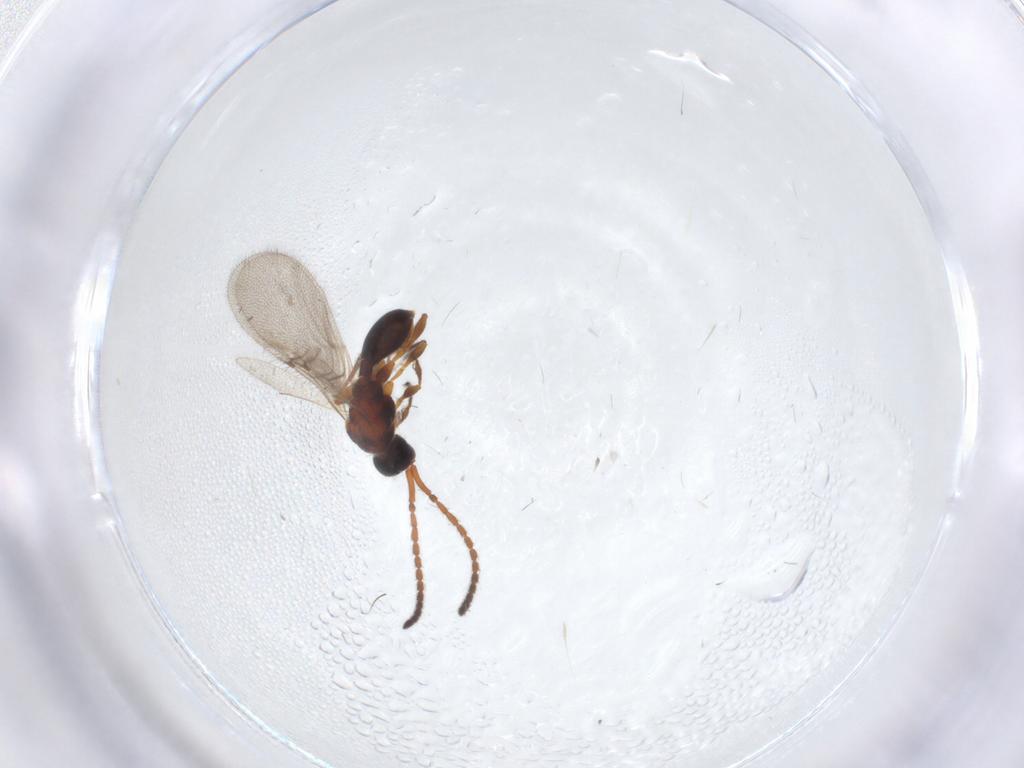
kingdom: Animalia
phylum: Arthropoda
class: Insecta
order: Hymenoptera
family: Diapriidae
